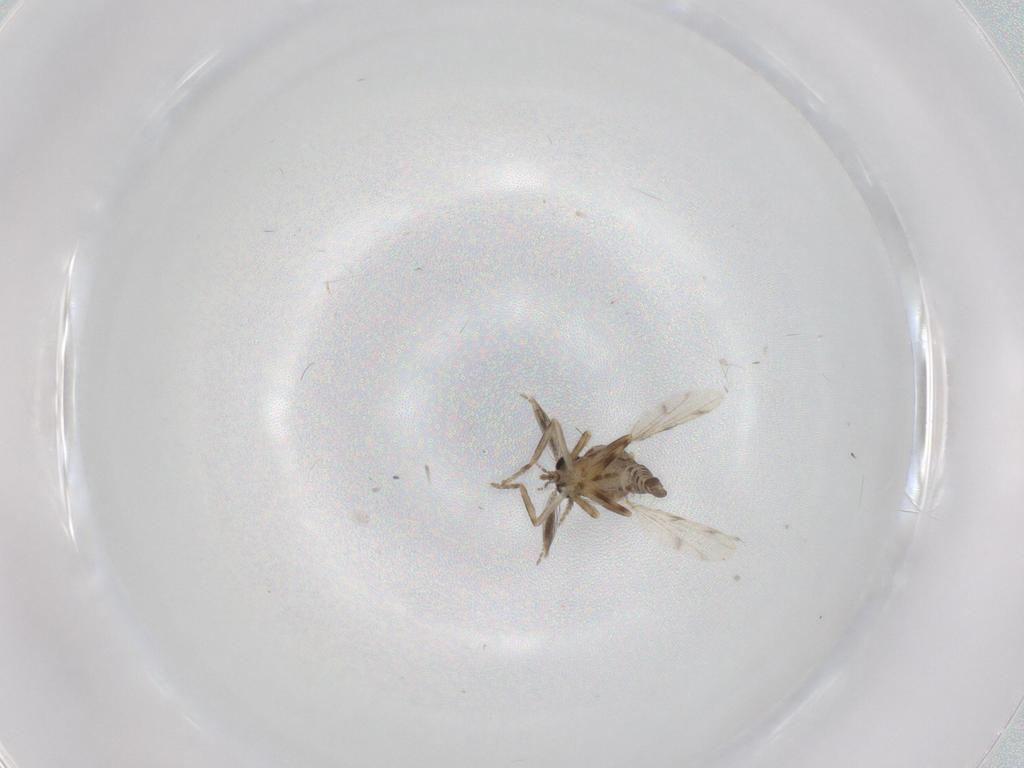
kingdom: Animalia
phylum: Arthropoda
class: Insecta
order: Diptera
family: Ceratopogonidae
